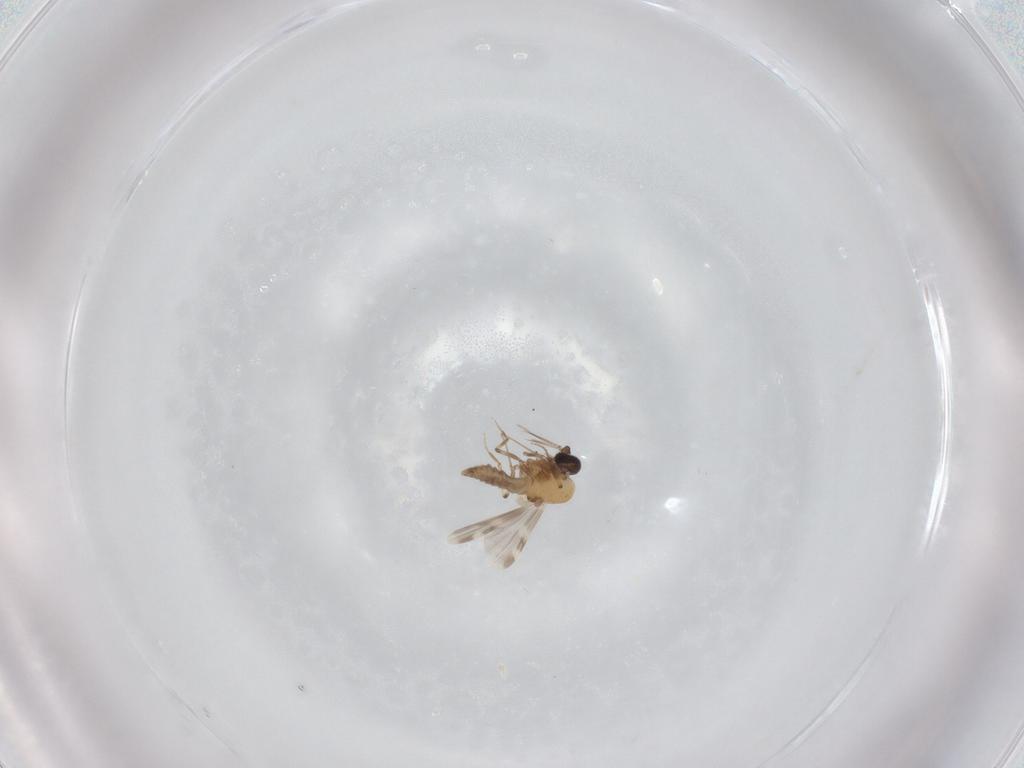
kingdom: Animalia
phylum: Arthropoda
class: Insecta
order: Diptera
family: Ceratopogonidae
